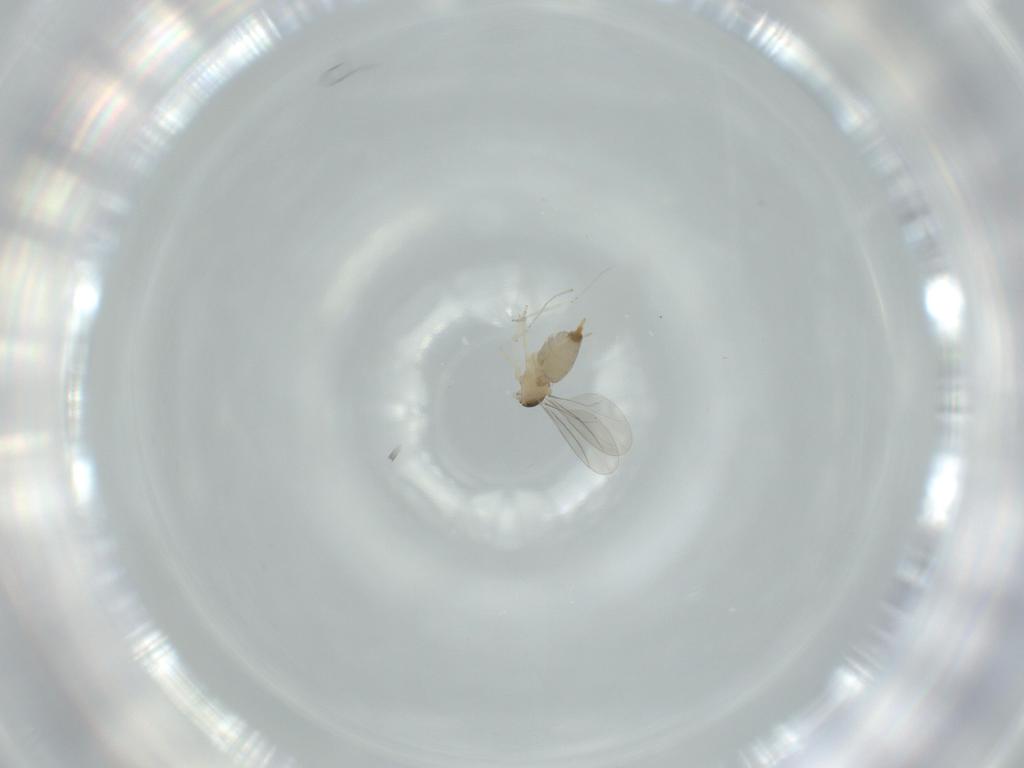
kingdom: Animalia
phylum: Arthropoda
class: Insecta
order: Diptera
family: Cecidomyiidae
